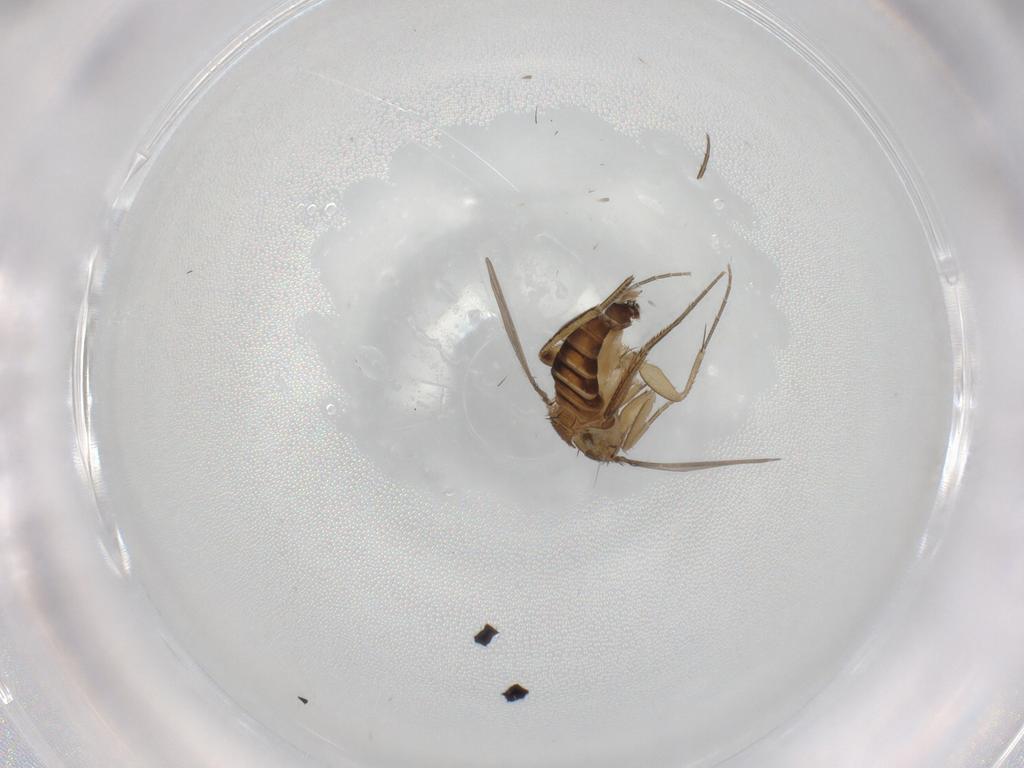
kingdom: Animalia
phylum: Arthropoda
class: Insecta
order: Diptera
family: Phoridae
